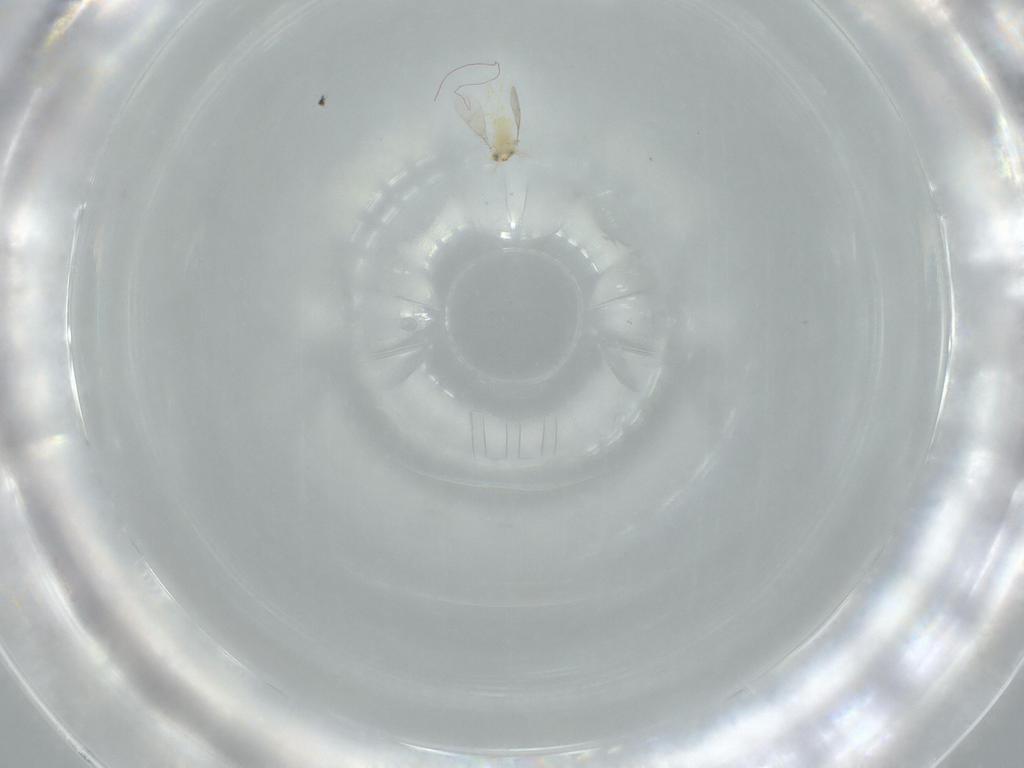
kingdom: Animalia
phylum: Arthropoda
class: Insecta
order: Hymenoptera
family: Aphelinidae
